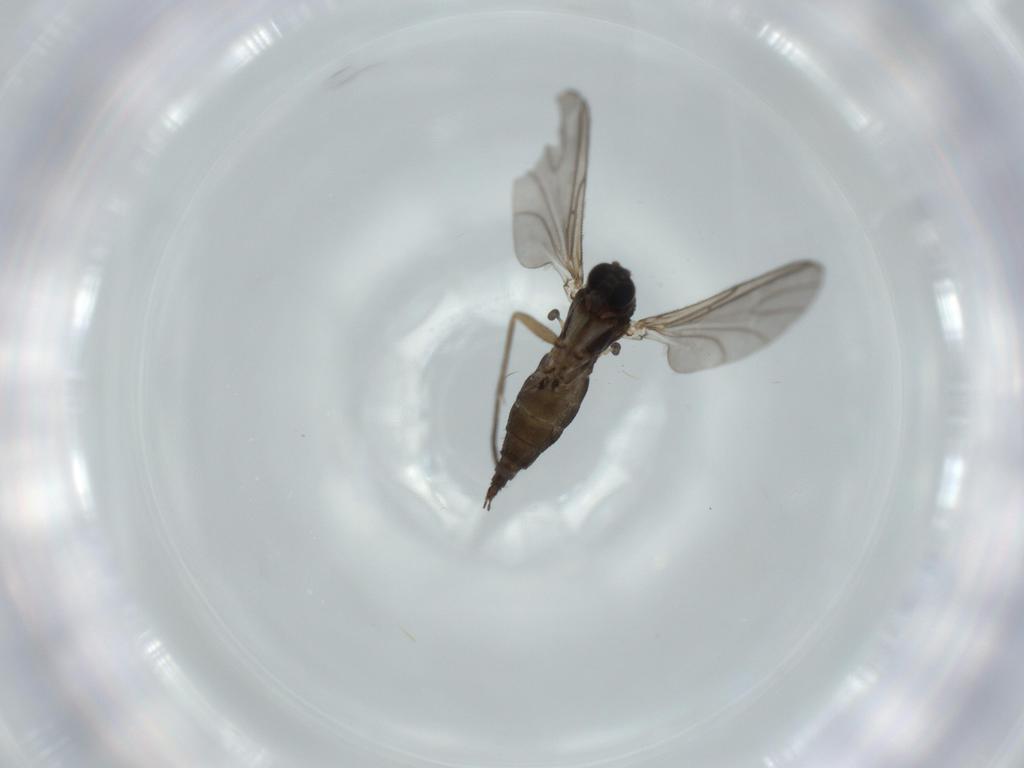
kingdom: Animalia
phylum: Arthropoda
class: Insecta
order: Diptera
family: Sciaridae
